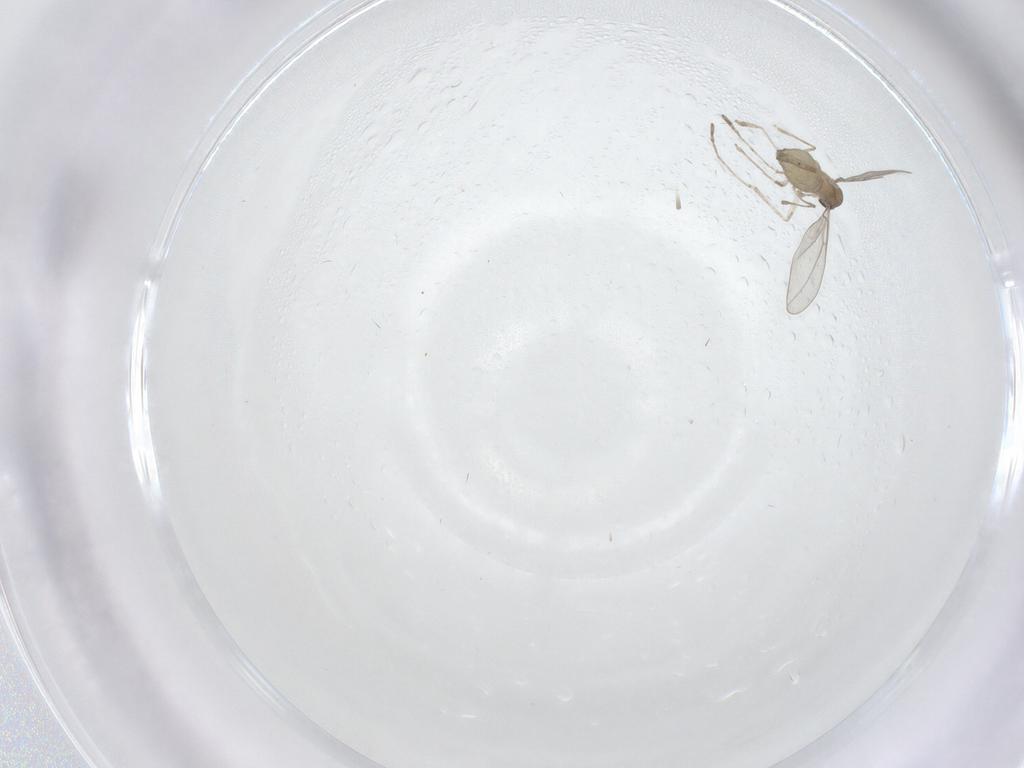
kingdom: Animalia
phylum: Arthropoda
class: Insecta
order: Diptera
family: Cecidomyiidae
